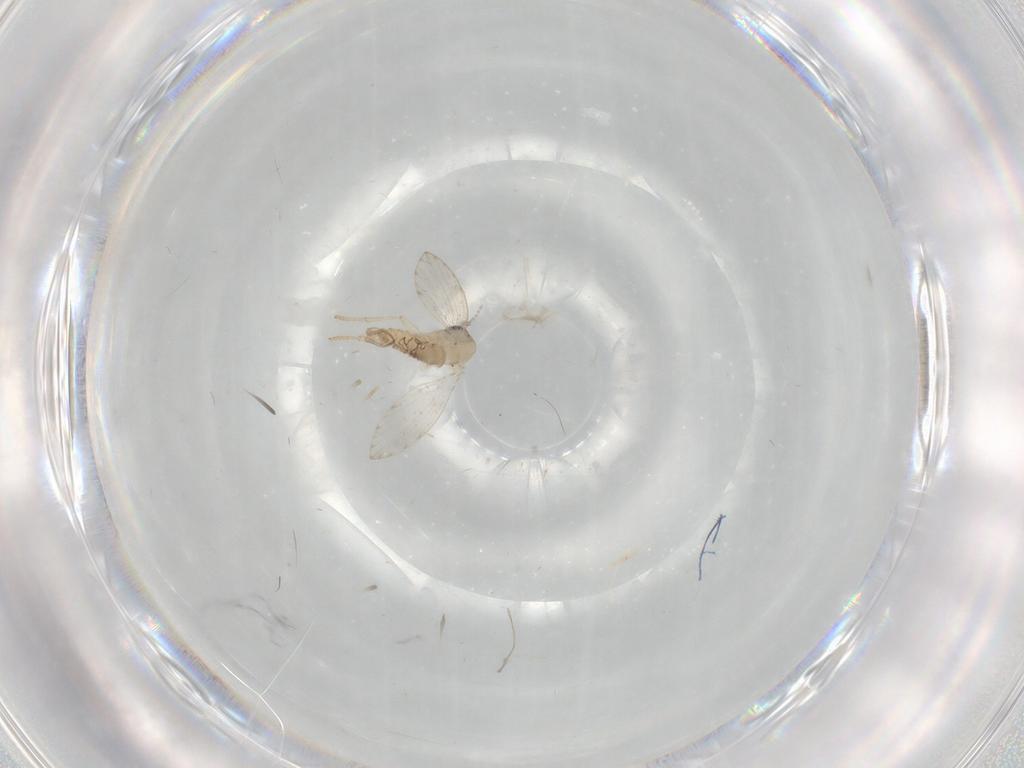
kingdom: Animalia
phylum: Arthropoda
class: Insecta
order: Diptera
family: Psychodidae
